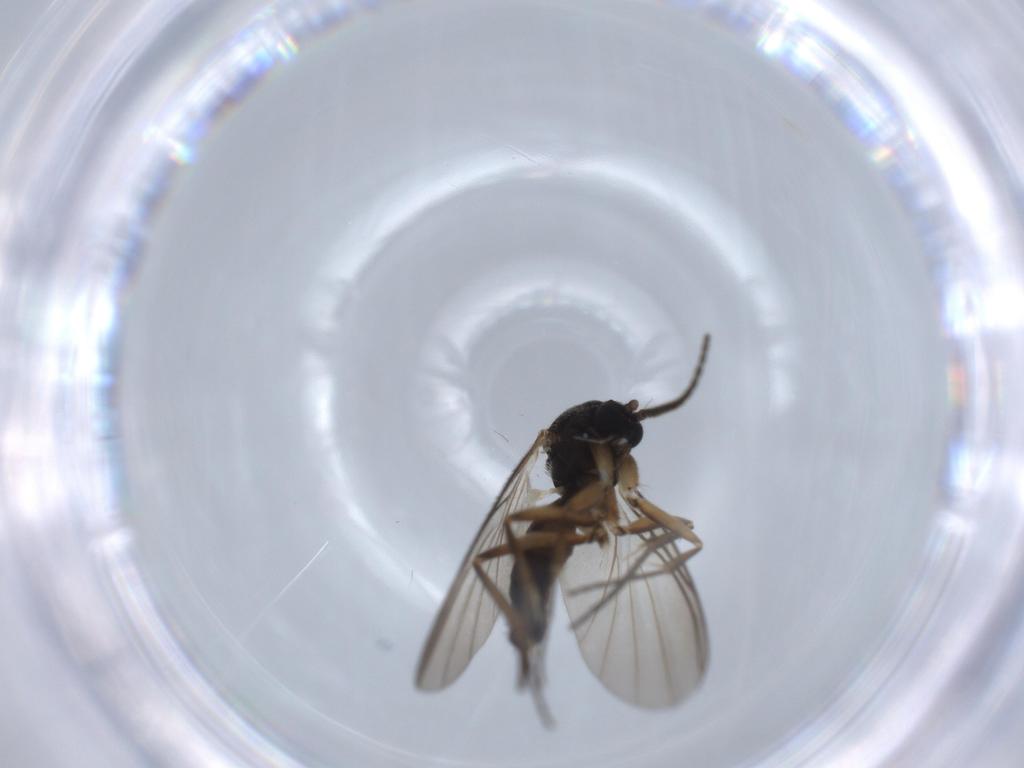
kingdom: Animalia
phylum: Arthropoda
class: Insecta
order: Diptera
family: Mycetophilidae
